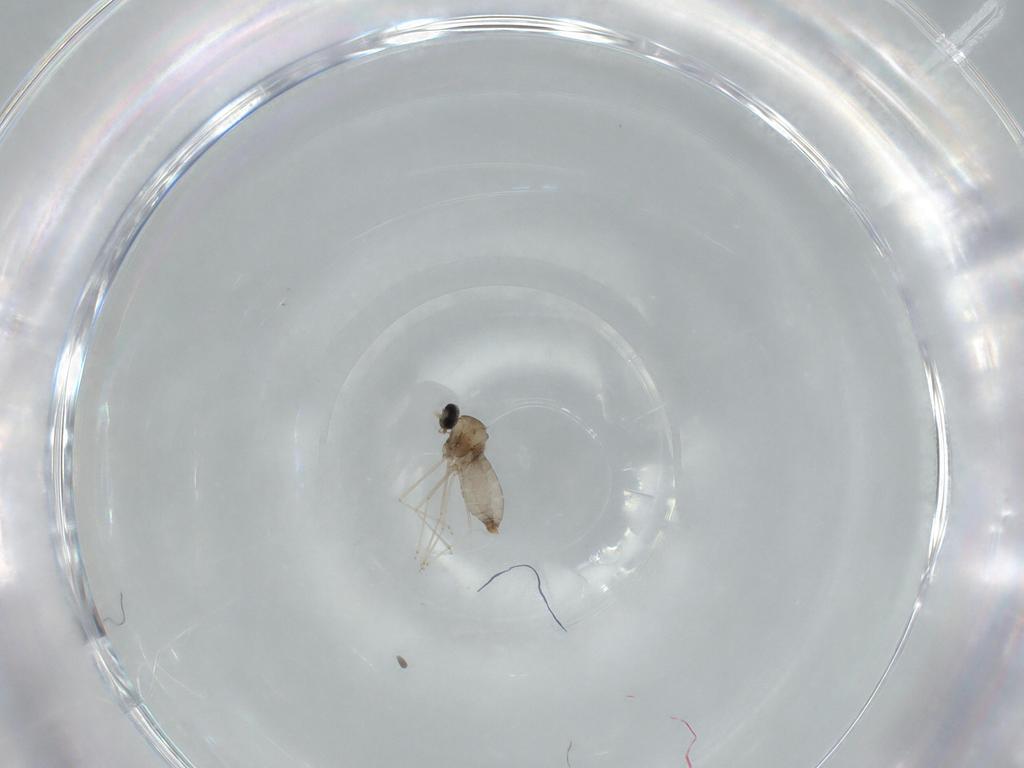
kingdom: Animalia
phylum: Arthropoda
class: Insecta
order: Diptera
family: Cecidomyiidae
